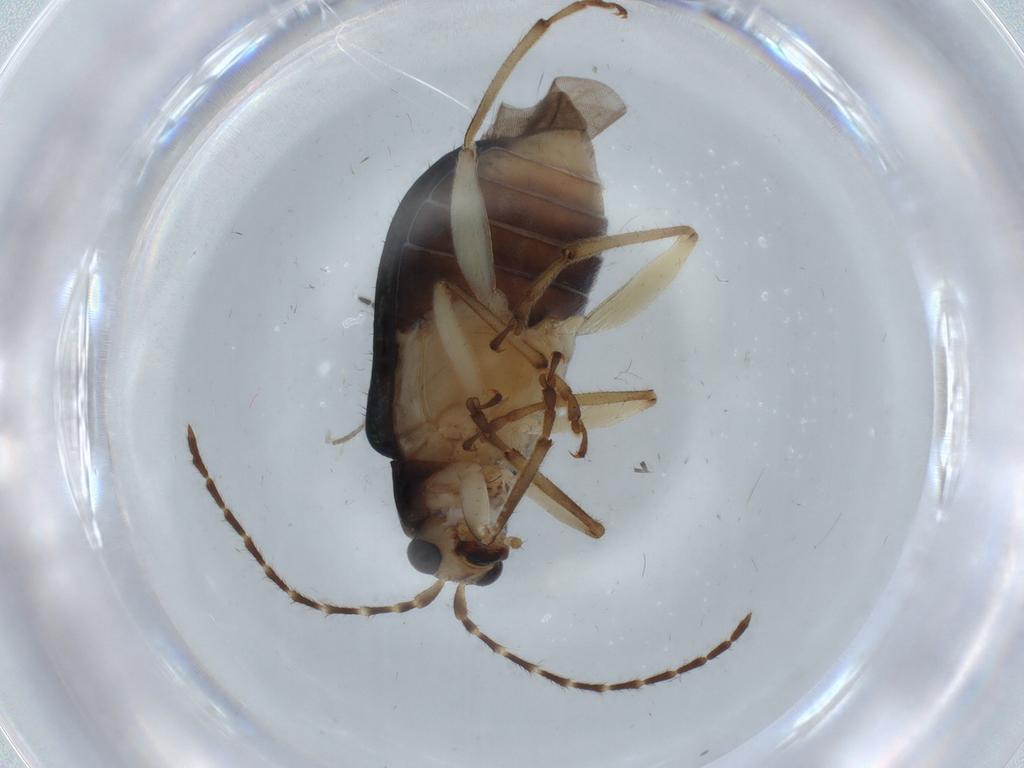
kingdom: Animalia
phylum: Arthropoda
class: Insecta
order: Coleoptera
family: Chrysomelidae
